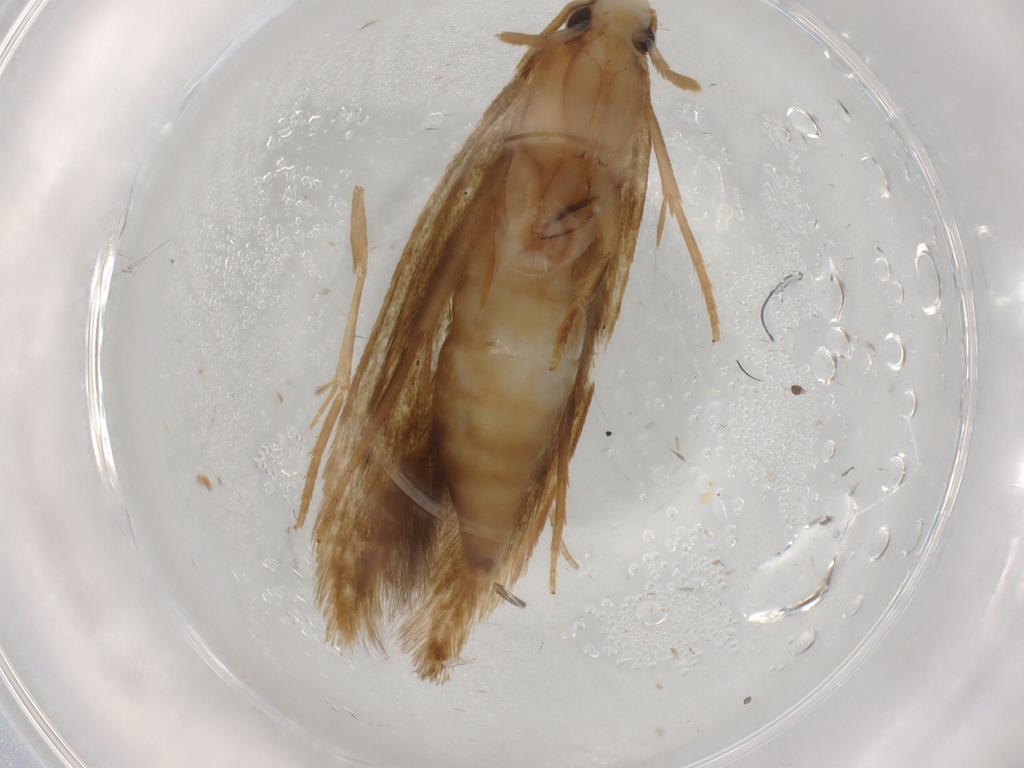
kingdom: Animalia
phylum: Arthropoda
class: Insecta
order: Lepidoptera
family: Tineidae
